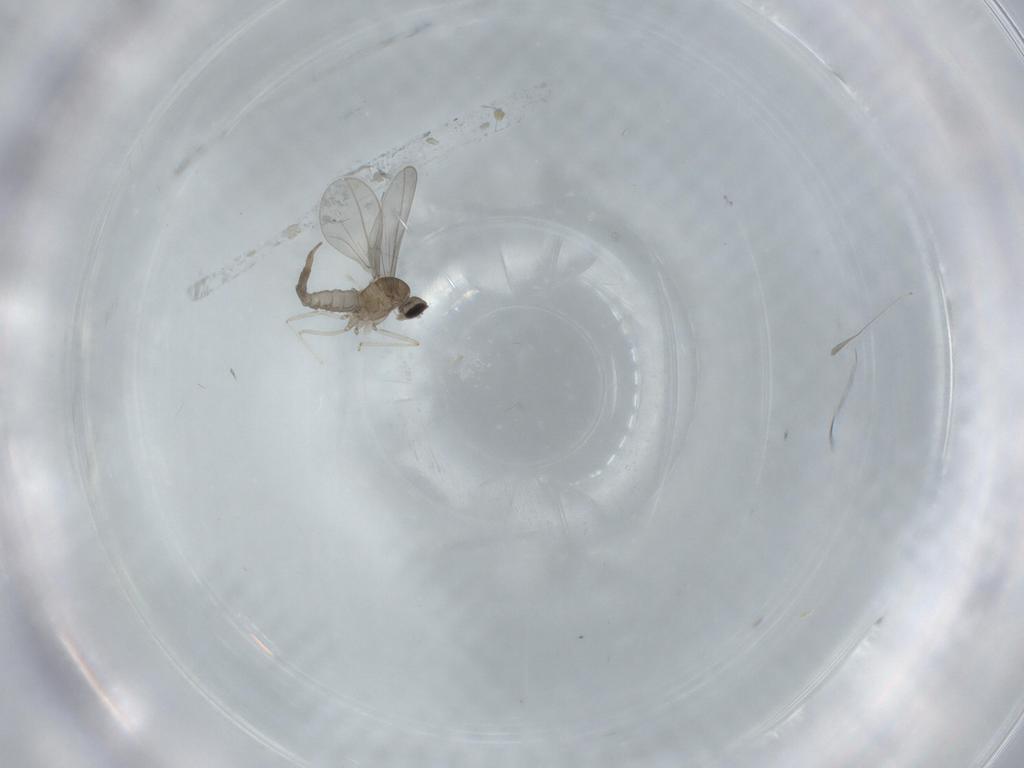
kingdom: Animalia
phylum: Arthropoda
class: Insecta
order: Diptera
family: Cecidomyiidae
